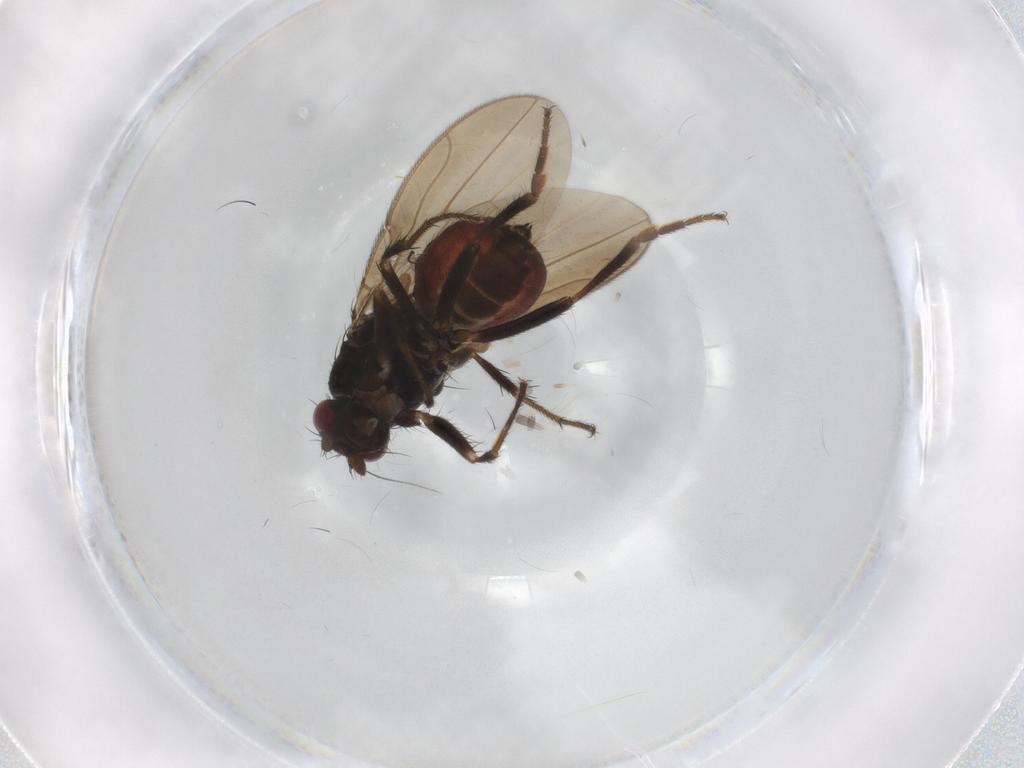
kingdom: Animalia
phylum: Arthropoda
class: Insecta
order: Diptera
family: Sphaeroceridae
